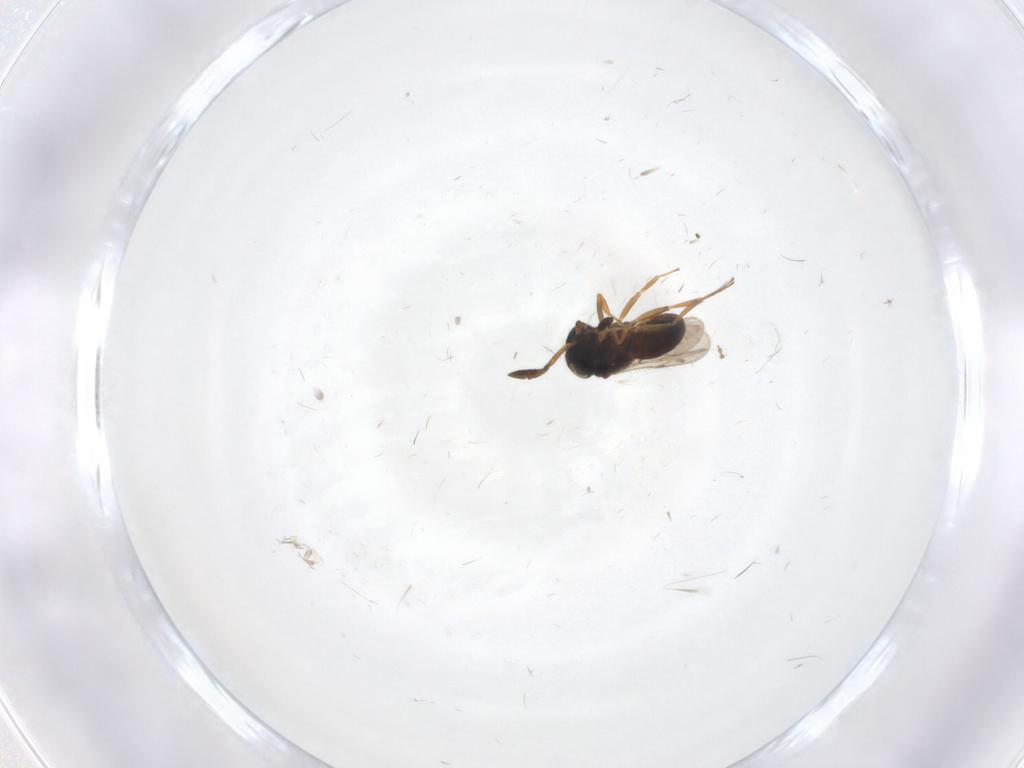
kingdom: Animalia
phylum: Arthropoda
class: Insecta
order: Hymenoptera
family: Scelionidae
